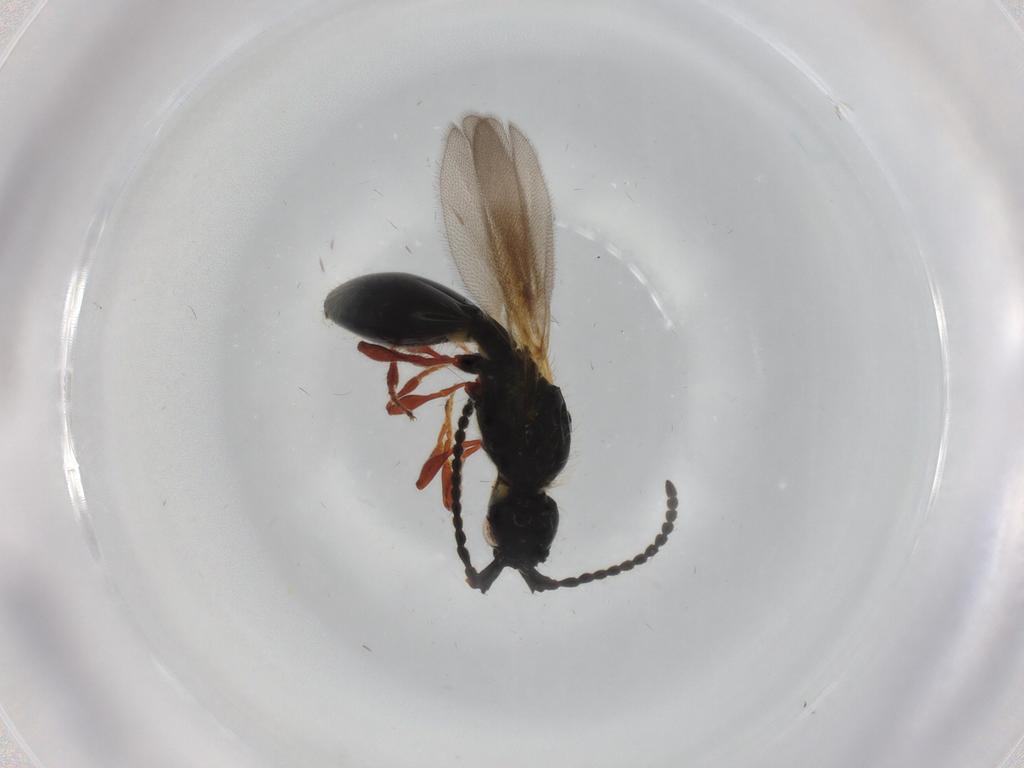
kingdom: Animalia
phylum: Arthropoda
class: Insecta
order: Hymenoptera
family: Diapriidae
